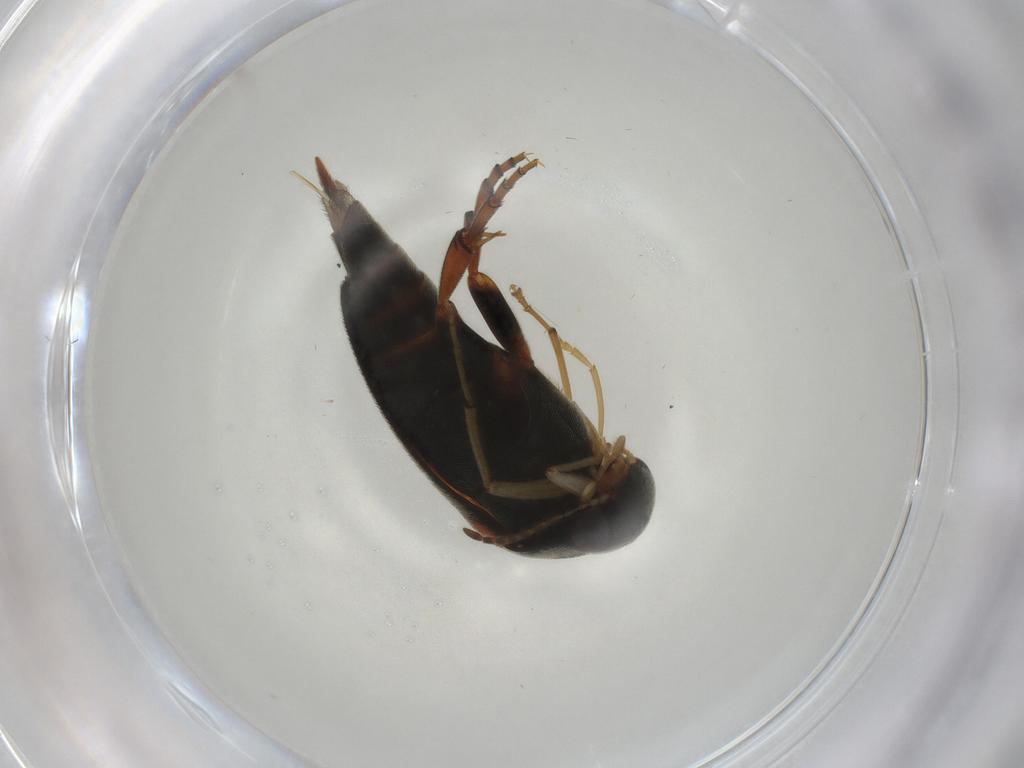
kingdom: Animalia
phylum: Arthropoda
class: Insecta
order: Coleoptera
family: Mordellidae
